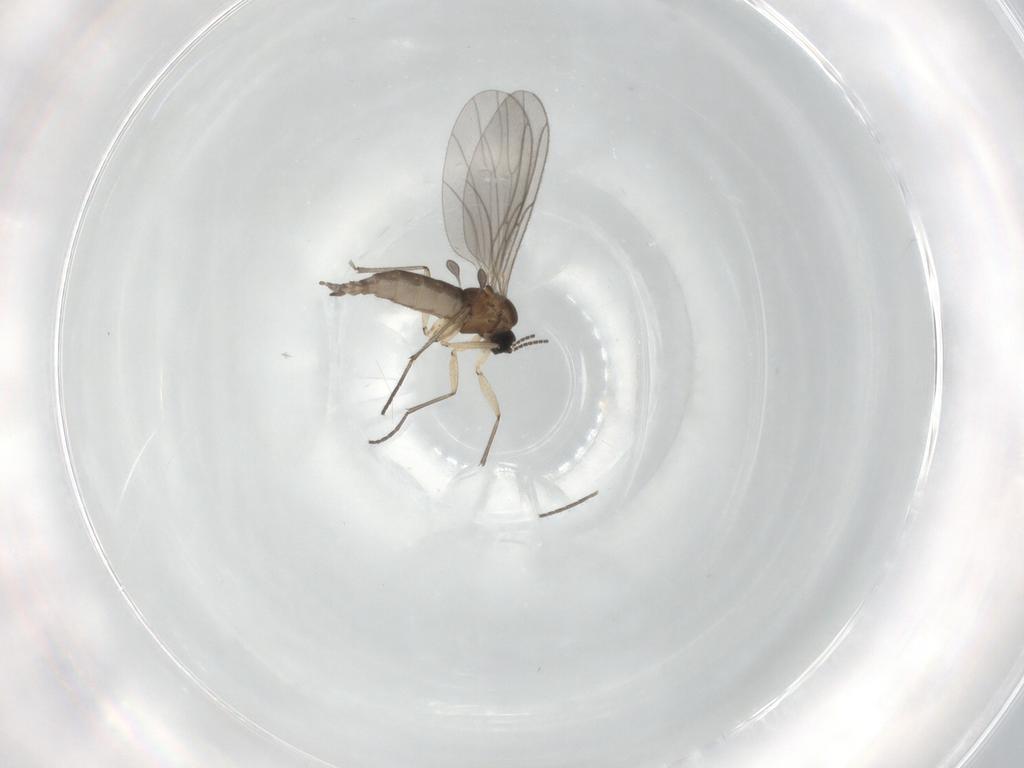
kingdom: Animalia
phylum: Arthropoda
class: Insecta
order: Diptera
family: Sciaridae
